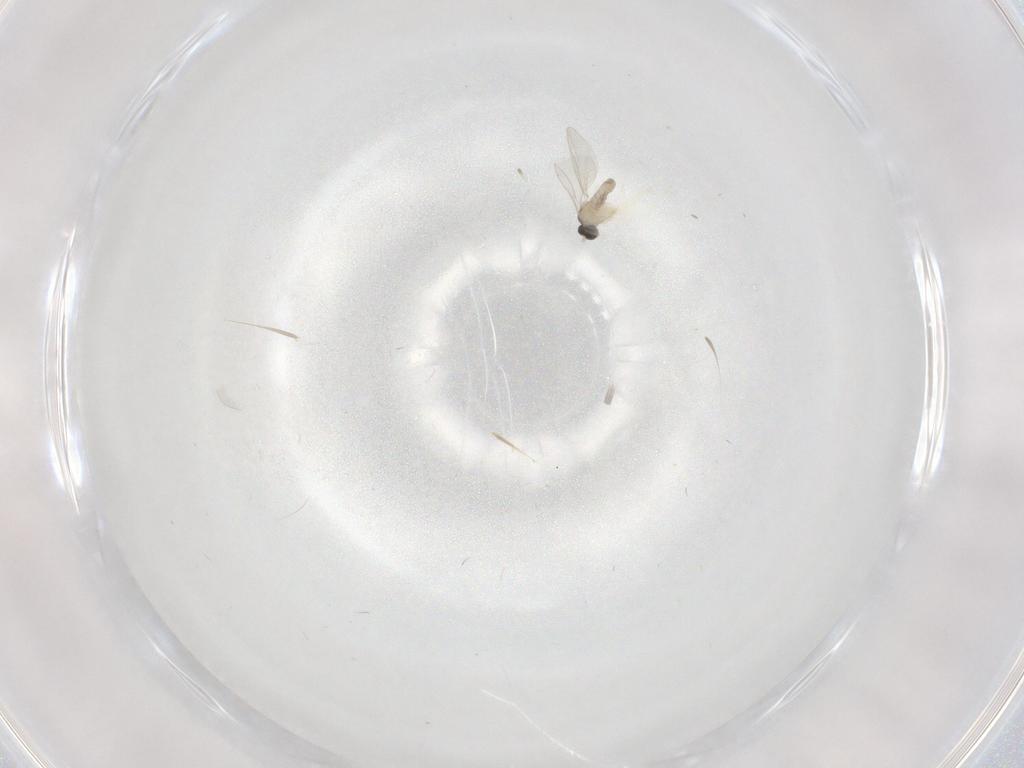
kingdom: Animalia
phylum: Arthropoda
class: Insecta
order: Diptera
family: Cecidomyiidae
